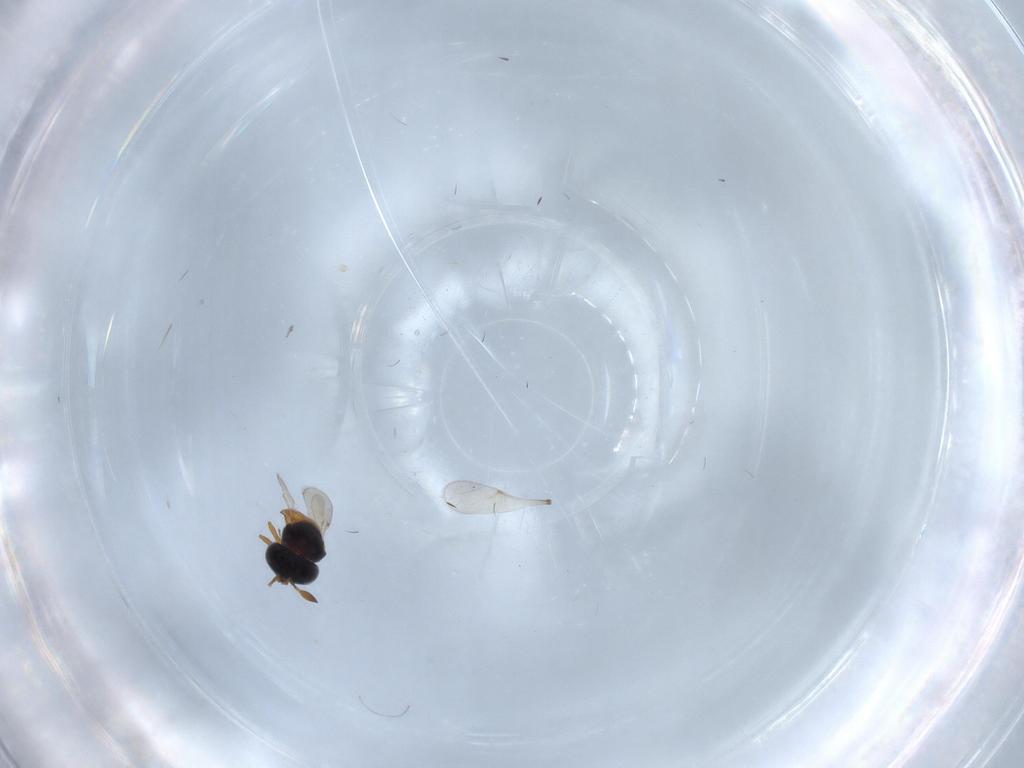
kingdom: Animalia
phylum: Arthropoda
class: Insecta
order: Hymenoptera
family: Scelionidae
